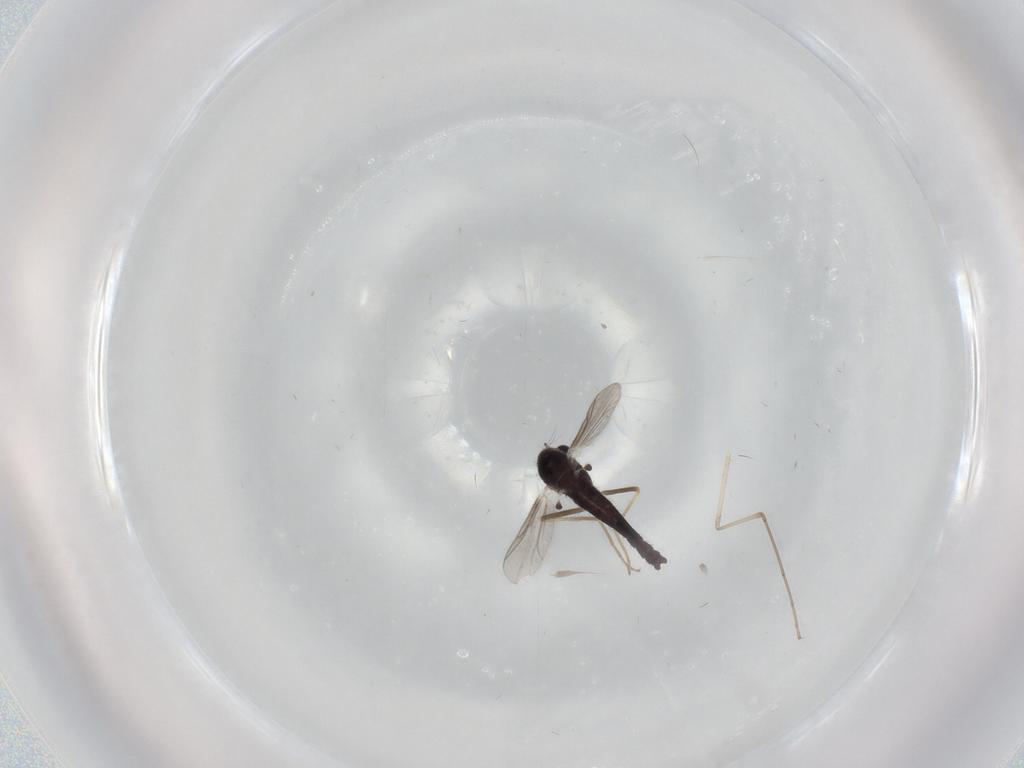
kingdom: Animalia
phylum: Arthropoda
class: Insecta
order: Diptera
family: Chironomidae
